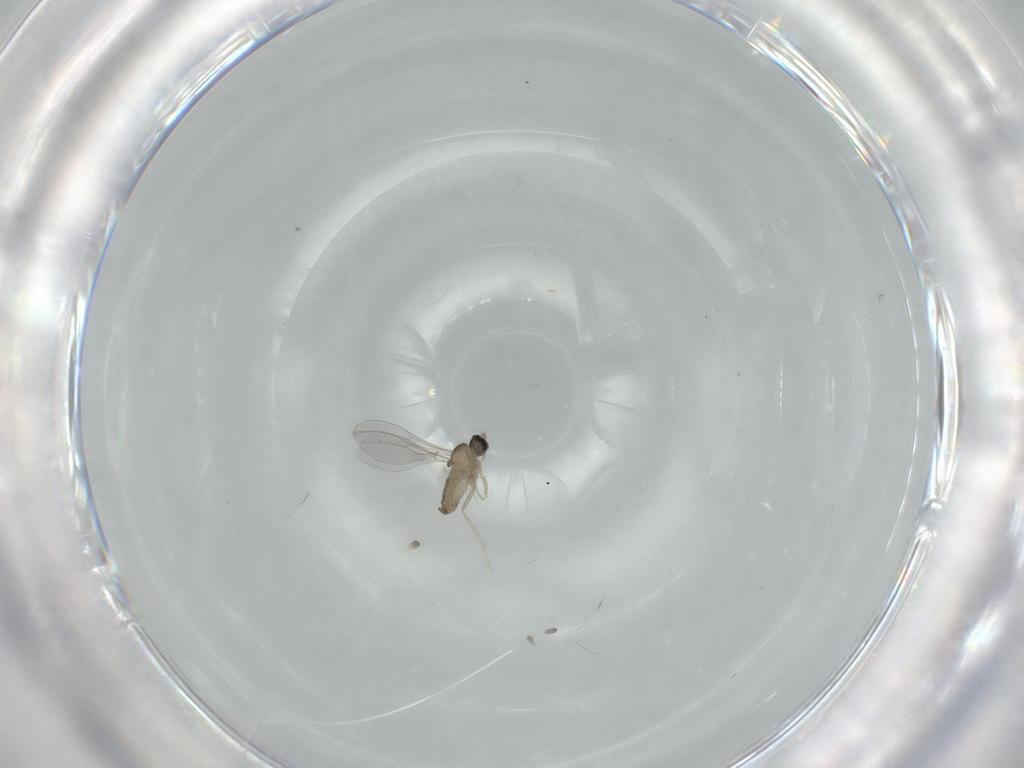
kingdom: Animalia
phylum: Arthropoda
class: Insecta
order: Diptera
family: Cecidomyiidae
